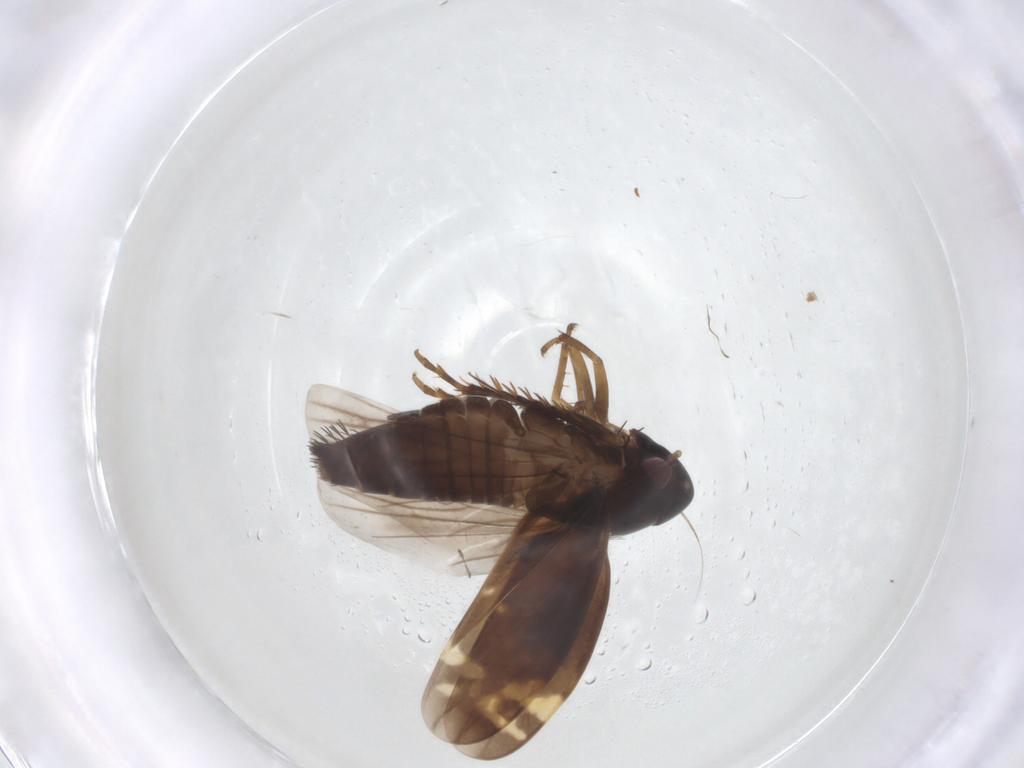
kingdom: Animalia
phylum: Arthropoda
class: Insecta
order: Hemiptera
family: Cicadellidae
